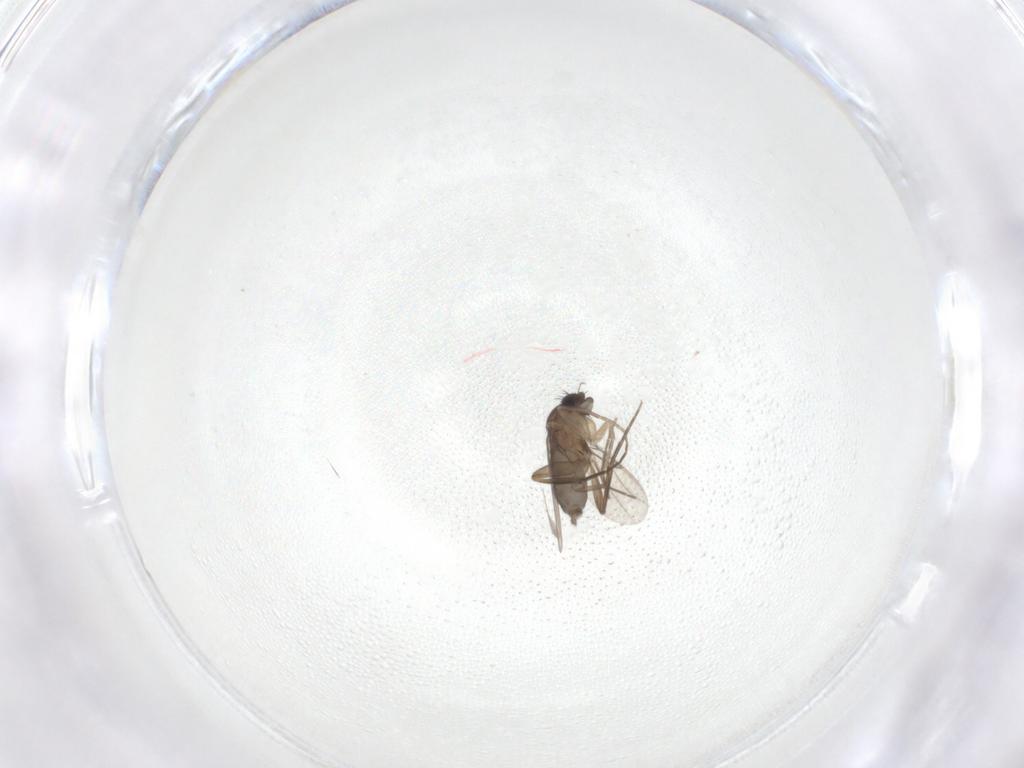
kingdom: Animalia
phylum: Arthropoda
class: Insecta
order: Diptera
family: Phoridae
